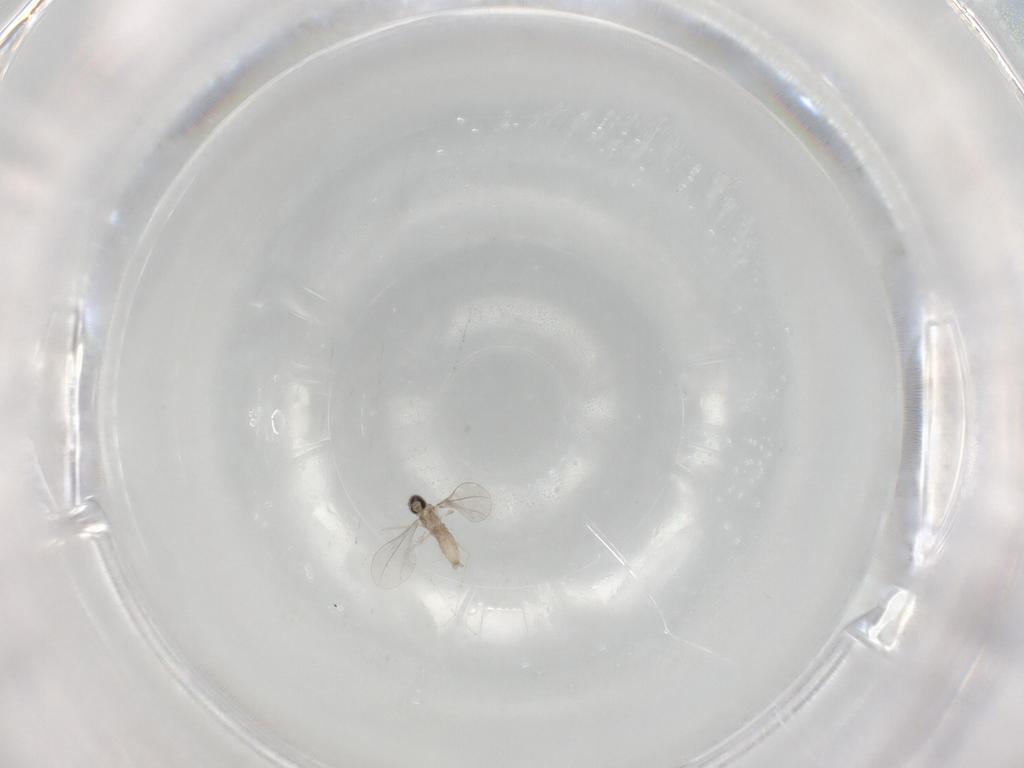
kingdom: Animalia
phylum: Arthropoda
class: Insecta
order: Diptera
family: Cecidomyiidae
